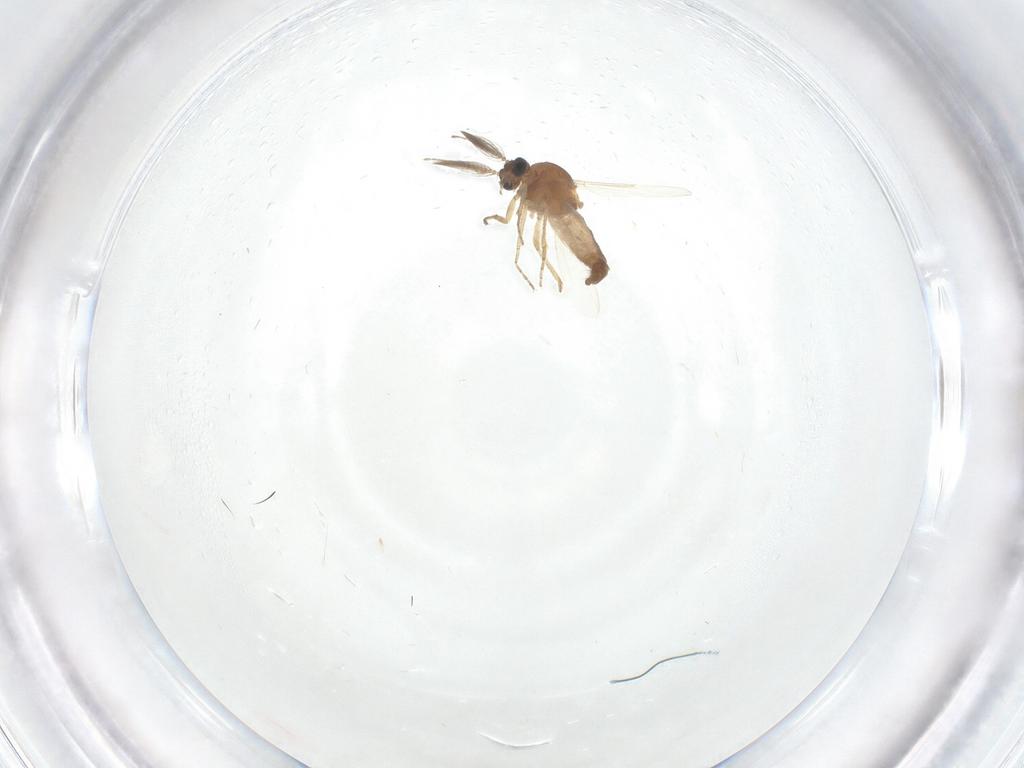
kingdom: Animalia
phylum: Arthropoda
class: Insecta
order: Diptera
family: Ceratopogonidae
